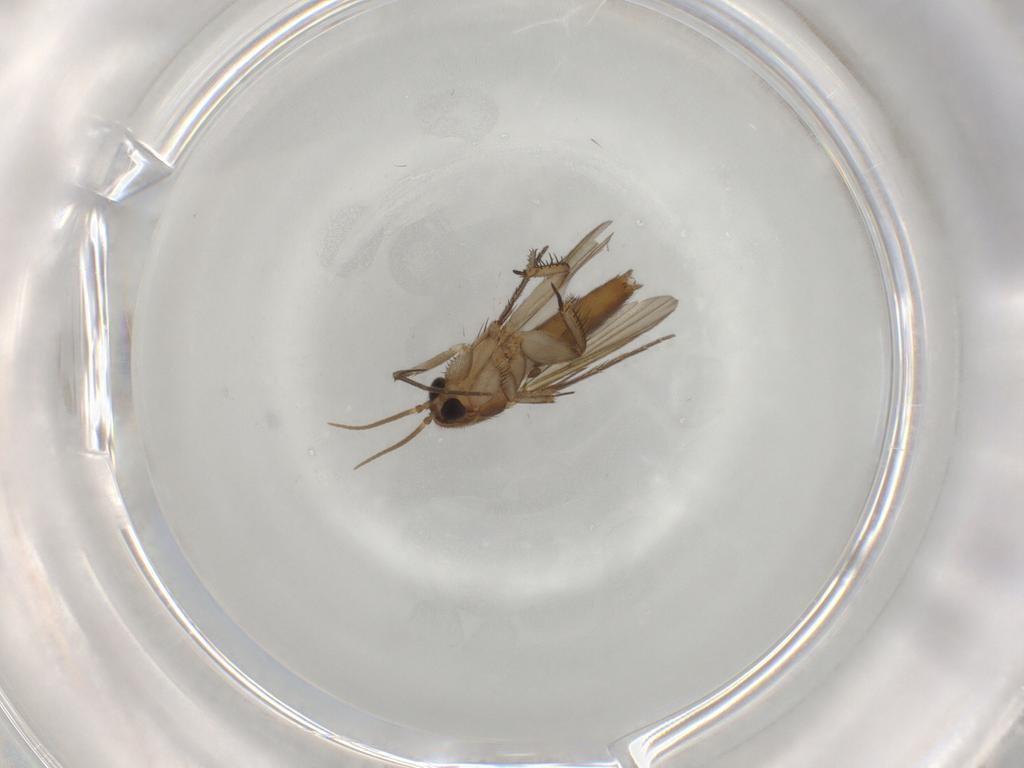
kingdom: Animalia
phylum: Arthropoda
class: Insecta
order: Diptera
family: Mycetophilidae
